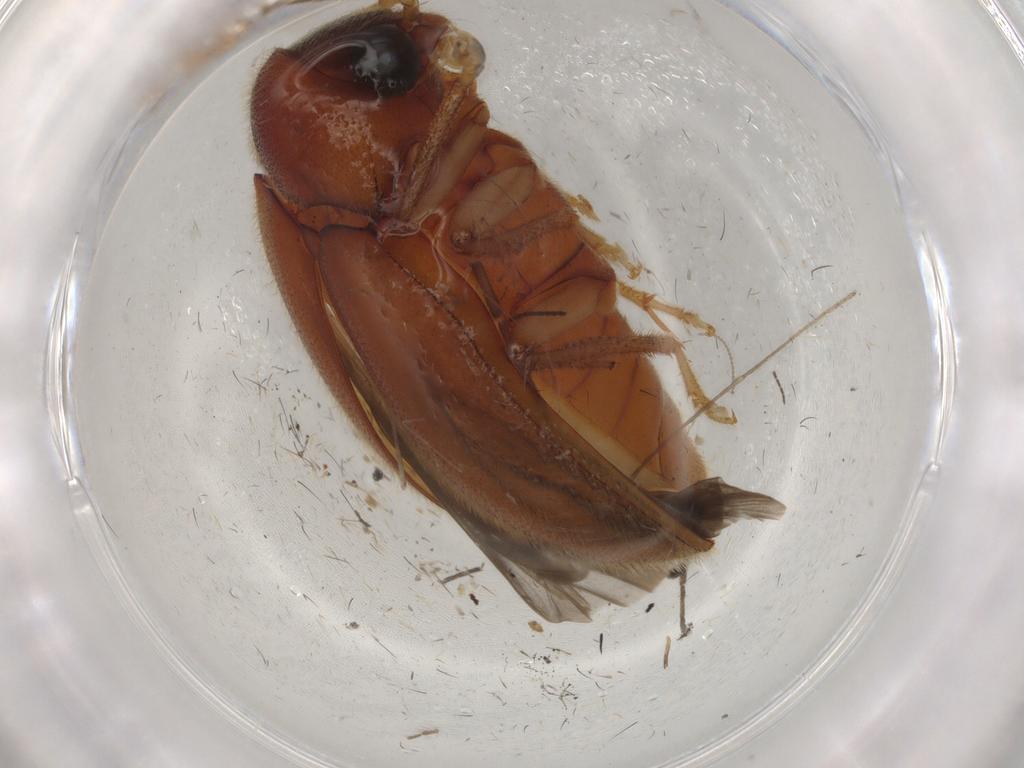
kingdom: Animalia
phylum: Arthropoda
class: Insecta
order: Coleoptera
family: Ptilodactylidae
